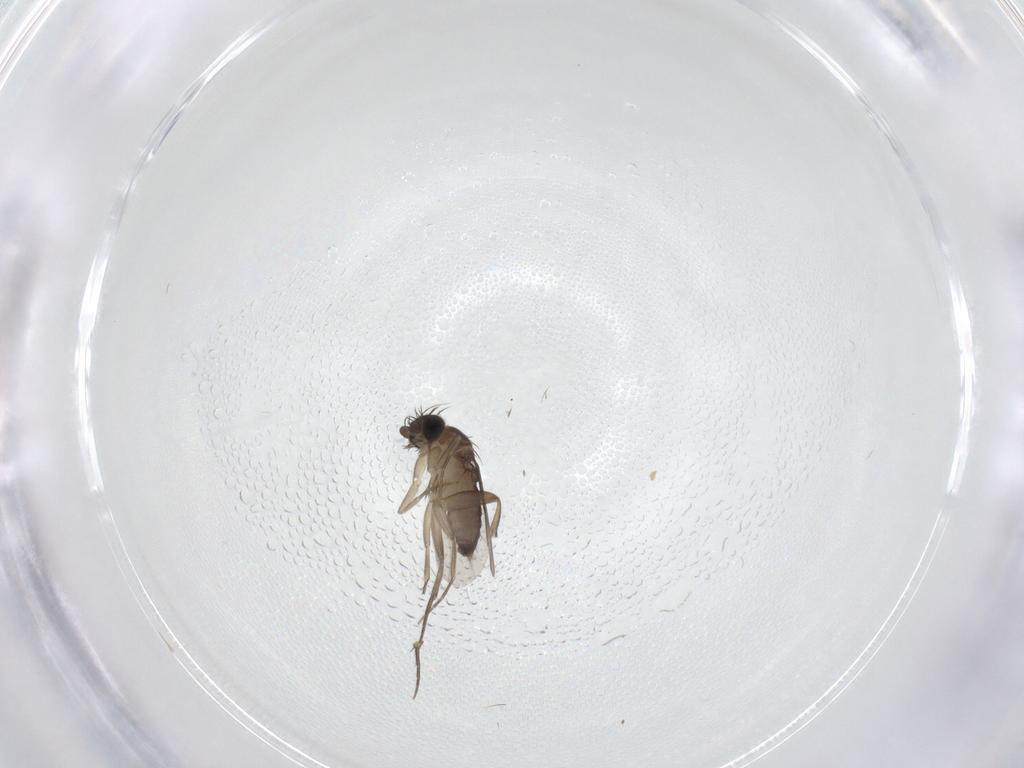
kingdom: Animalia
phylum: Arthropoda
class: Insecta
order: Diptera
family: Phoridae
